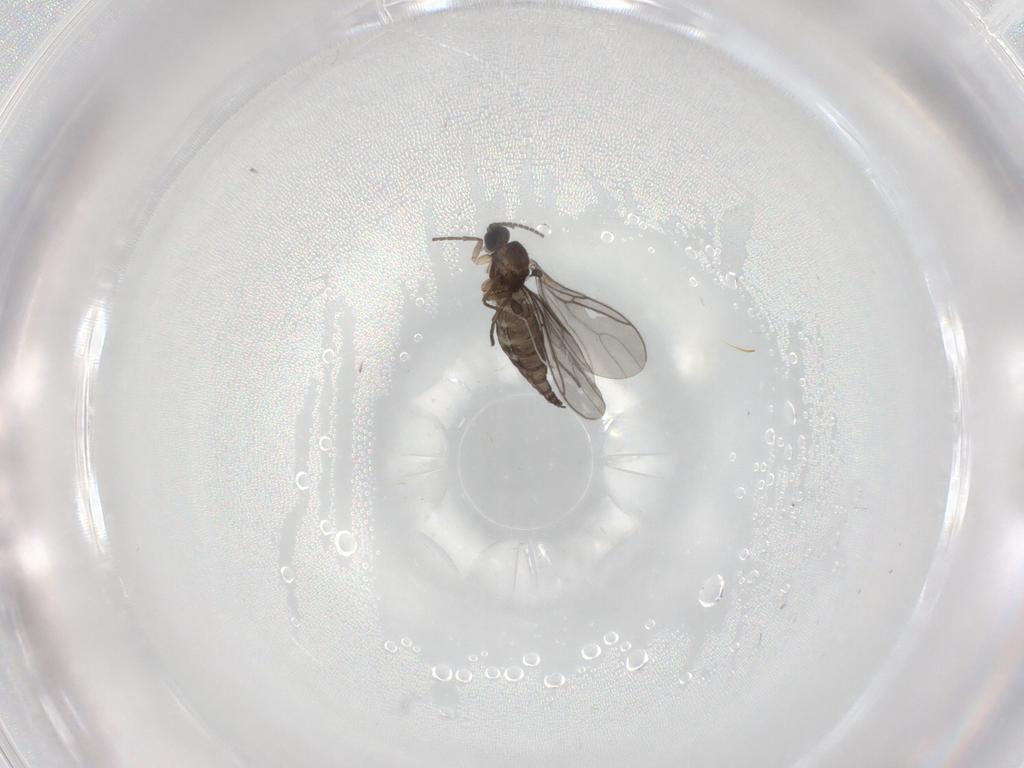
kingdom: Animalia
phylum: Arthropoda
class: Insecta
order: Diptera
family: Sciaridae
